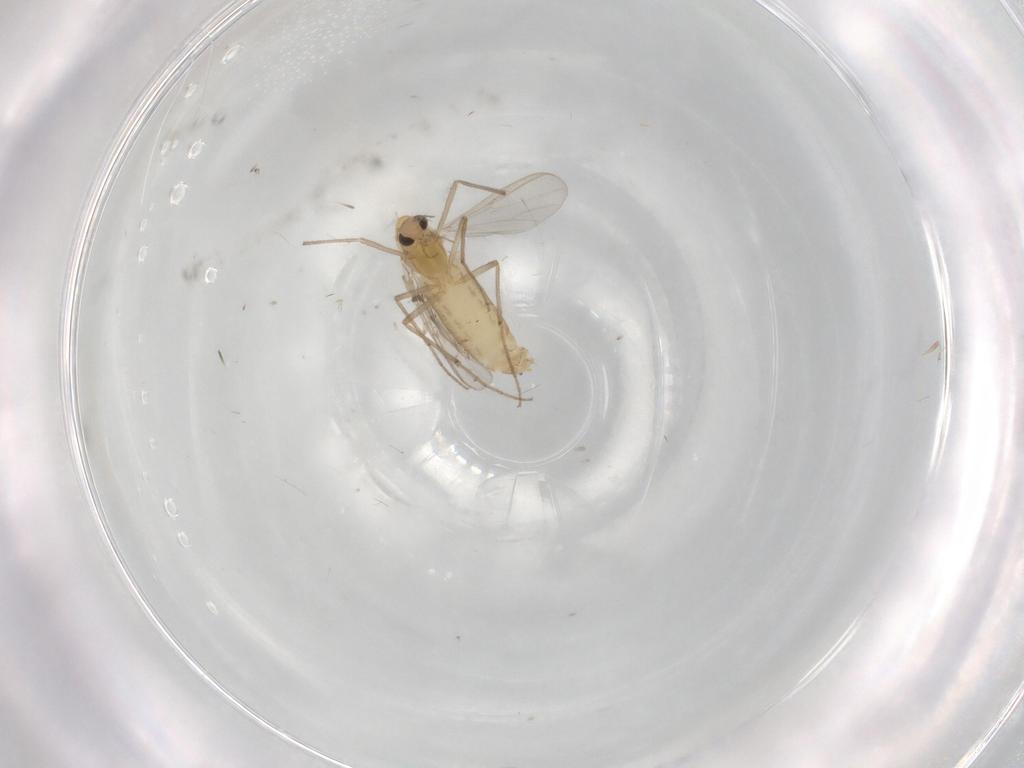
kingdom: Animalia
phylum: Arthropoda
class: Insecta
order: Diptera
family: Chironomidae
